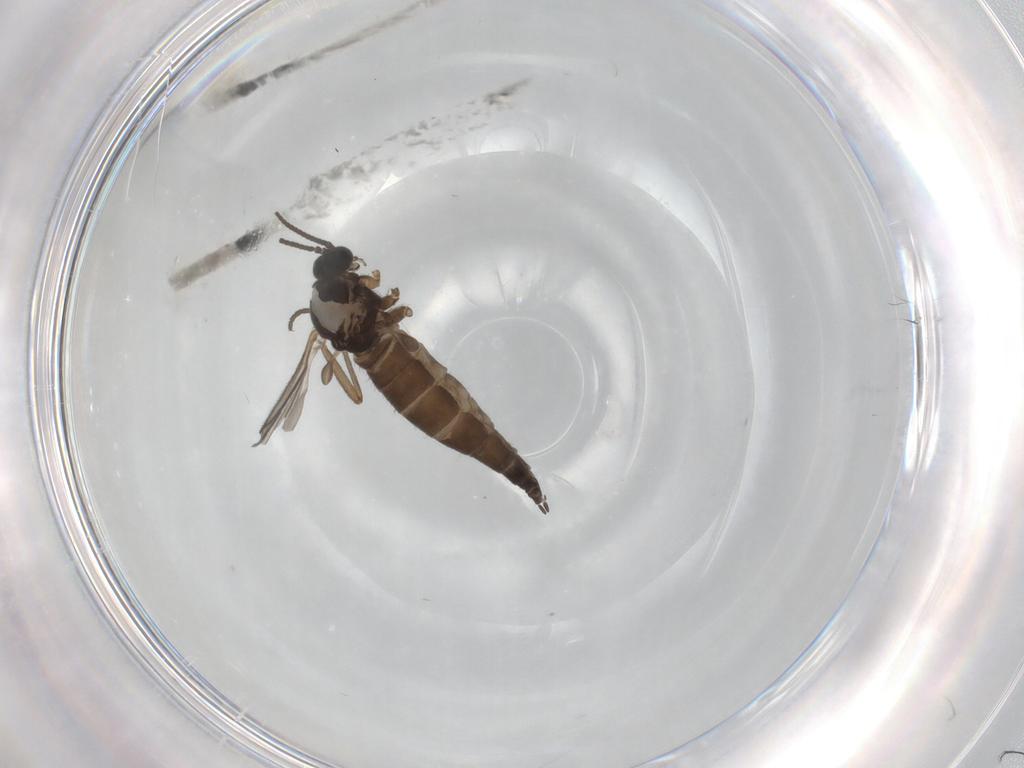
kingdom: Animalia
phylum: Arthropoda
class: Insecta
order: Diptera
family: Sciaridae
